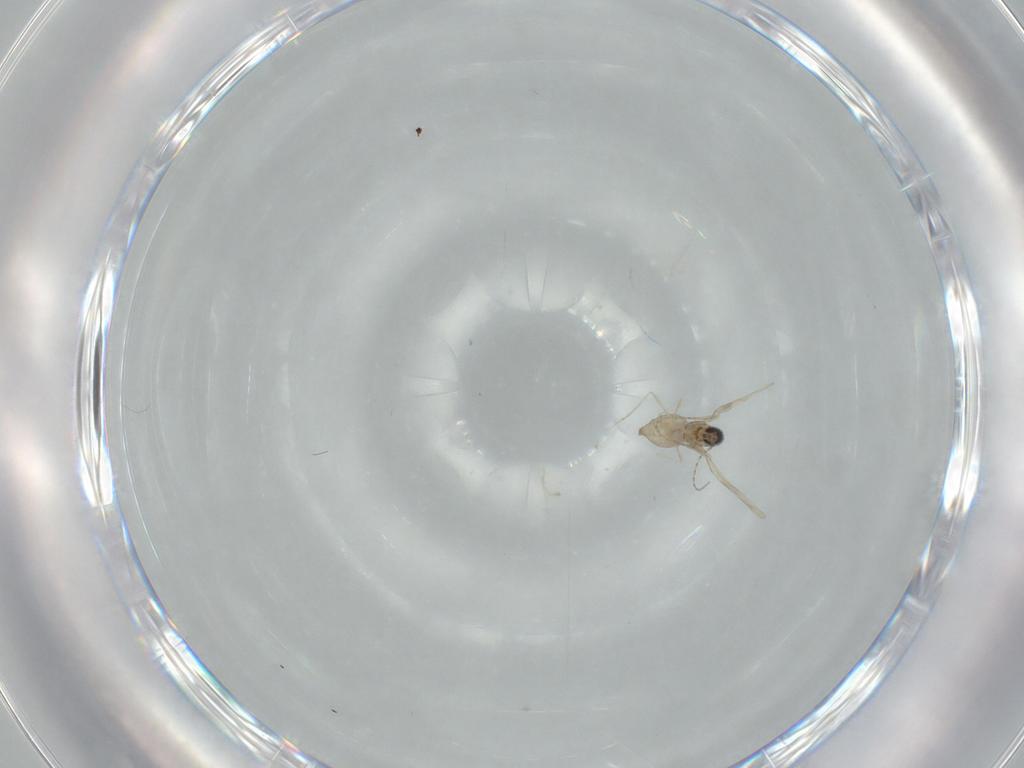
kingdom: Animalia
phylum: Arthropoda
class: Insecta
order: Diptera
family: Cecidomyiidae
